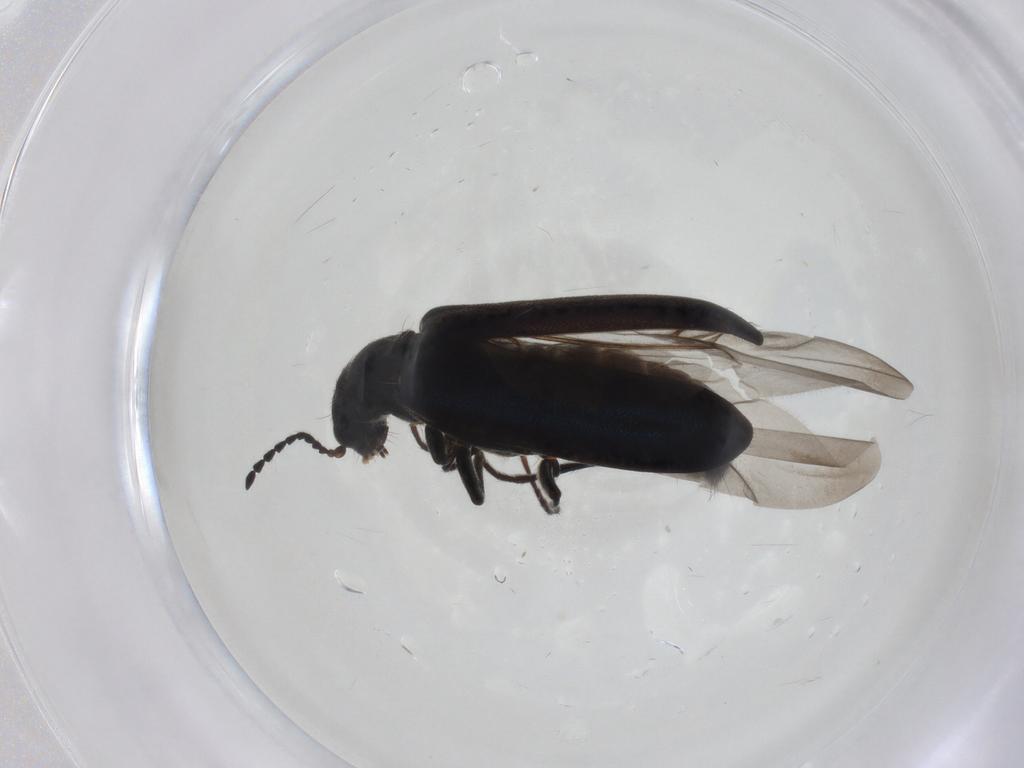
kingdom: Animalia
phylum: Arthropoda
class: Insecta
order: Coleoptera
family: Melyridae
